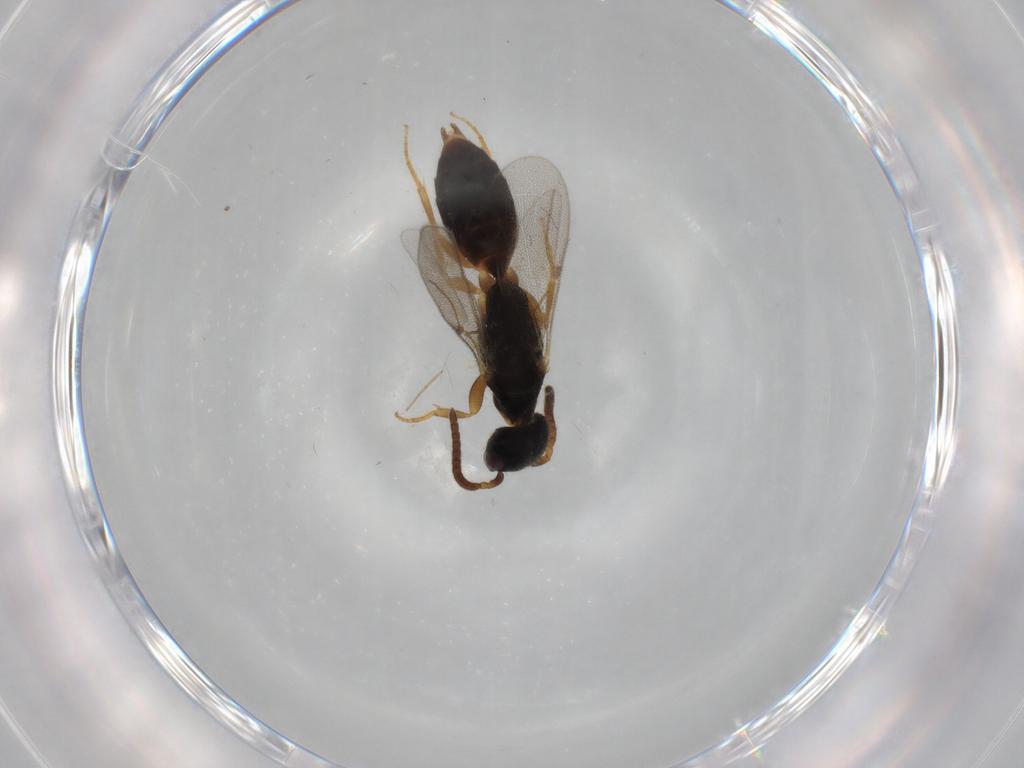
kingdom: Animalia
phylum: Arthropoda
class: Insecta
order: Hymenoptera
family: Bethylidae
